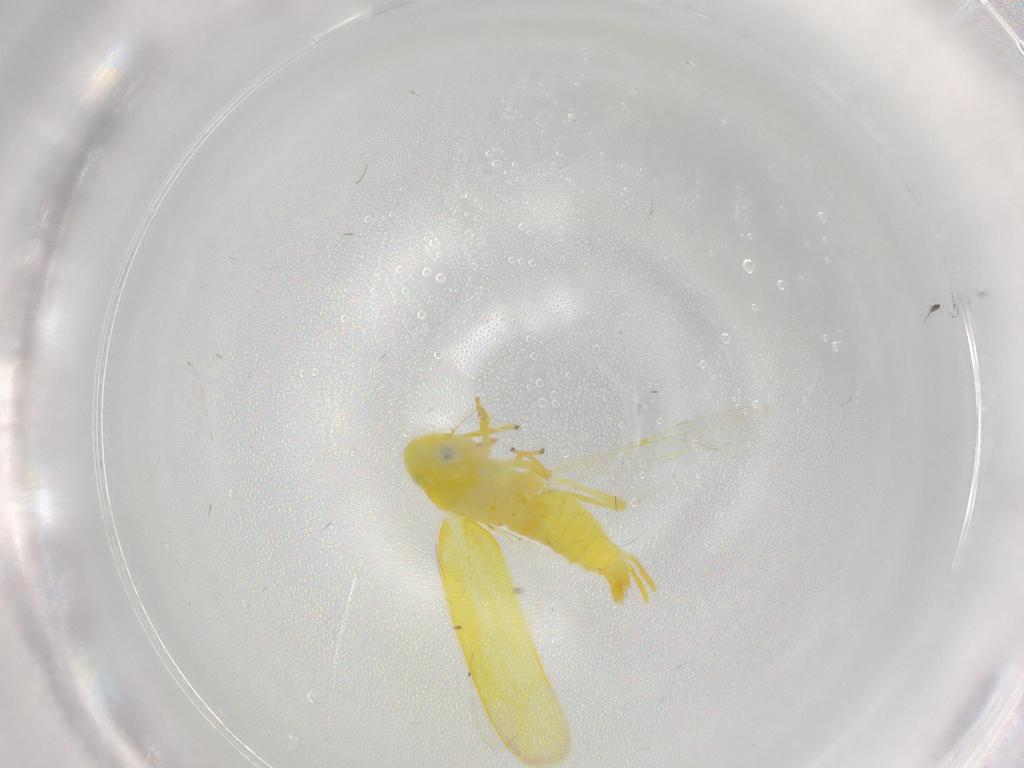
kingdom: Animalia
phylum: Arthropoda
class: Insecta
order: Hemiptera
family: Cicadellidae
